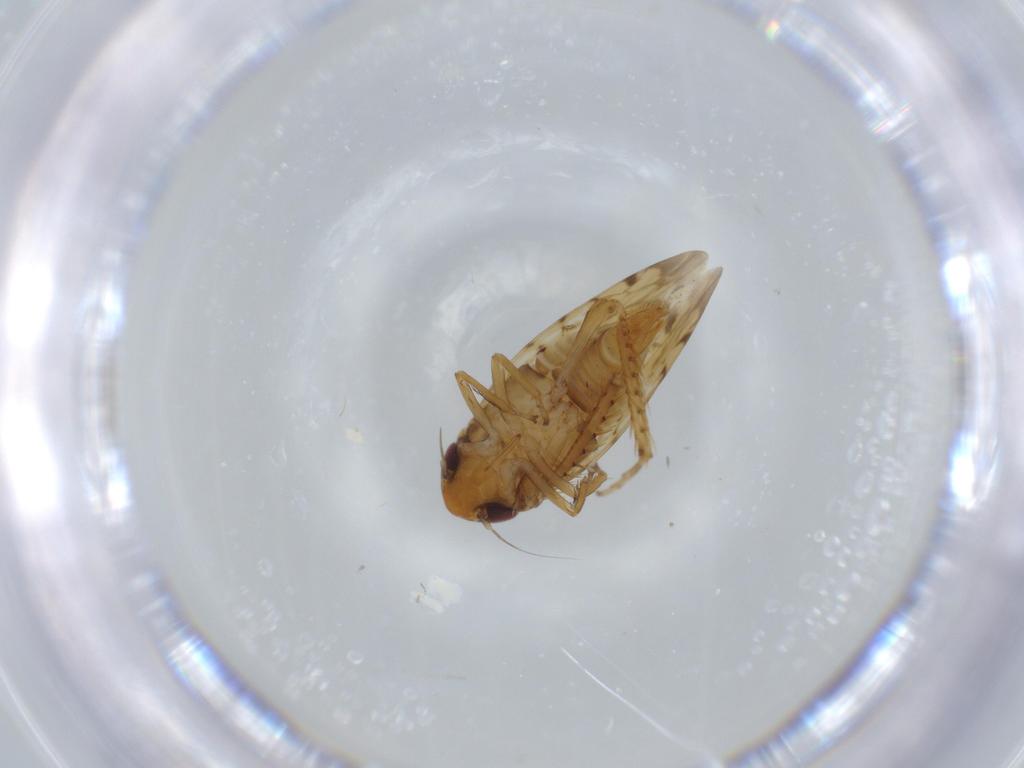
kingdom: Animalia
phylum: Arthropoda
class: Insecta
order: Hemiptera
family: Cicadellidae
